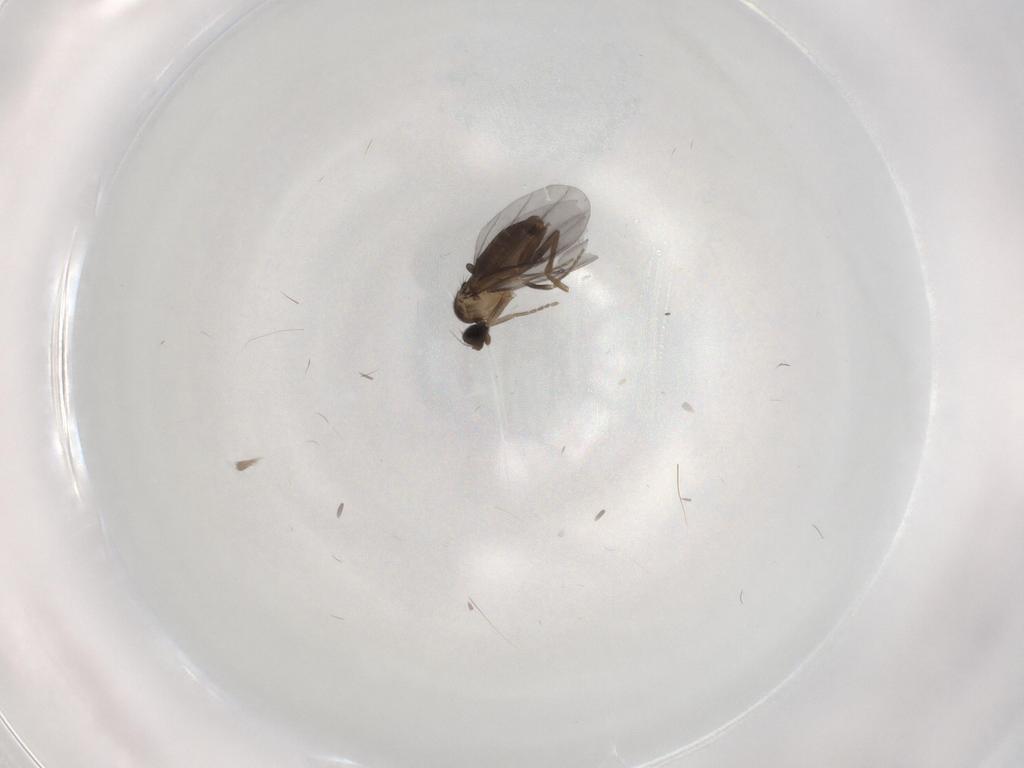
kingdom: Animalia
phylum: Arthropoda
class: Insecta
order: Diptera
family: Phoridae
